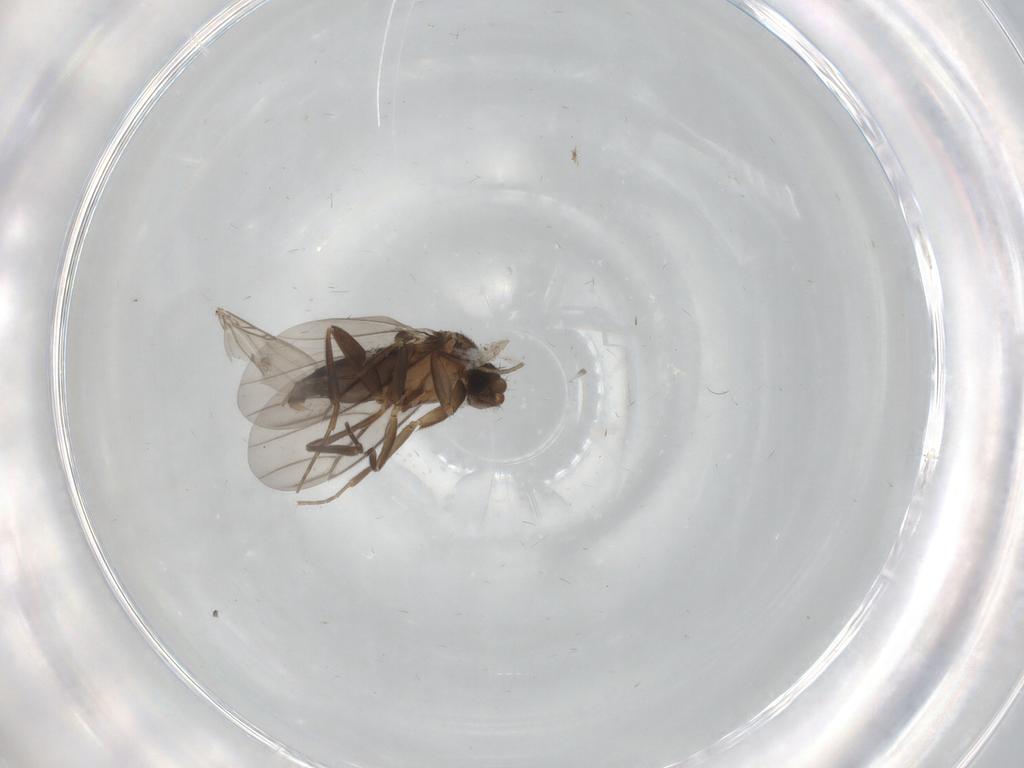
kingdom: Animalia
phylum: Arthropoda
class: Insecta
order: Diptera
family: Phoridae
